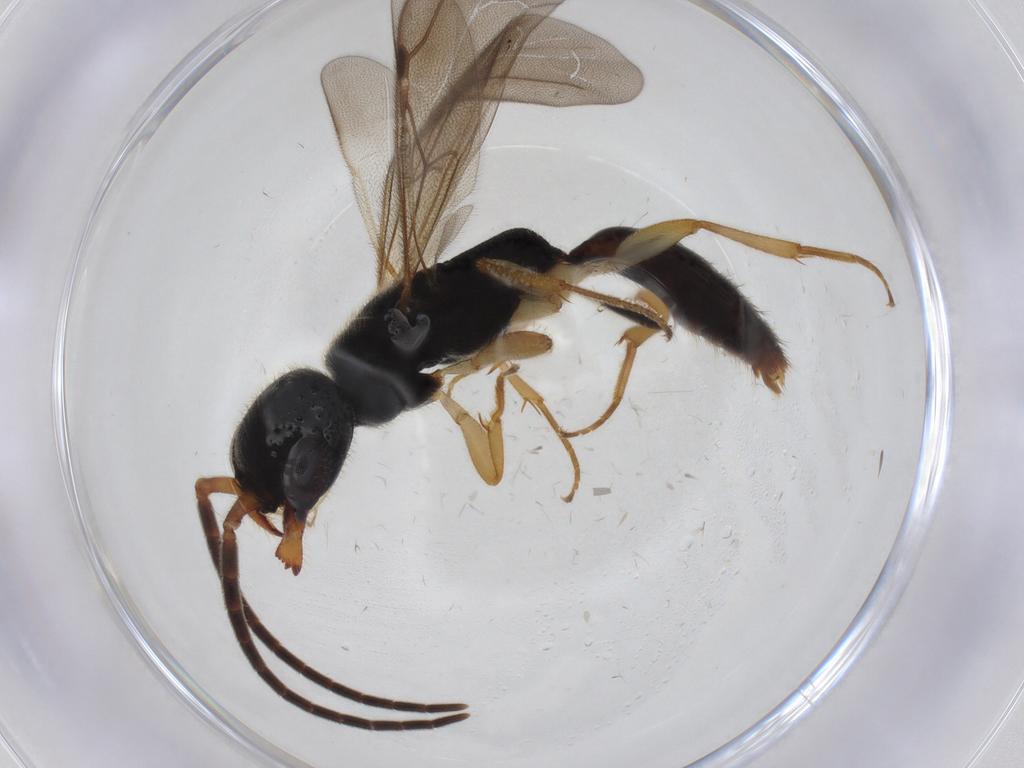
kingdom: Animalia
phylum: Arthropoda
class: Insecta
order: Hymenoptera
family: Bethylidae
